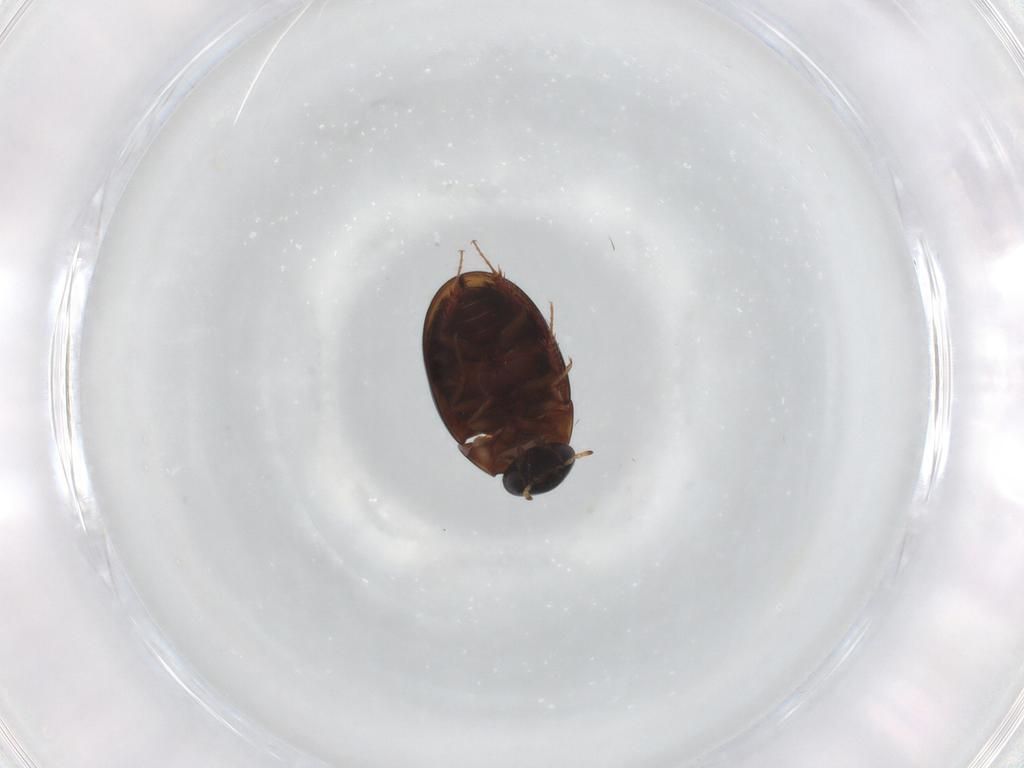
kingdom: Animalia
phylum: Arthropoda
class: Insecta
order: Coleoptera
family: Hydrophilidae
